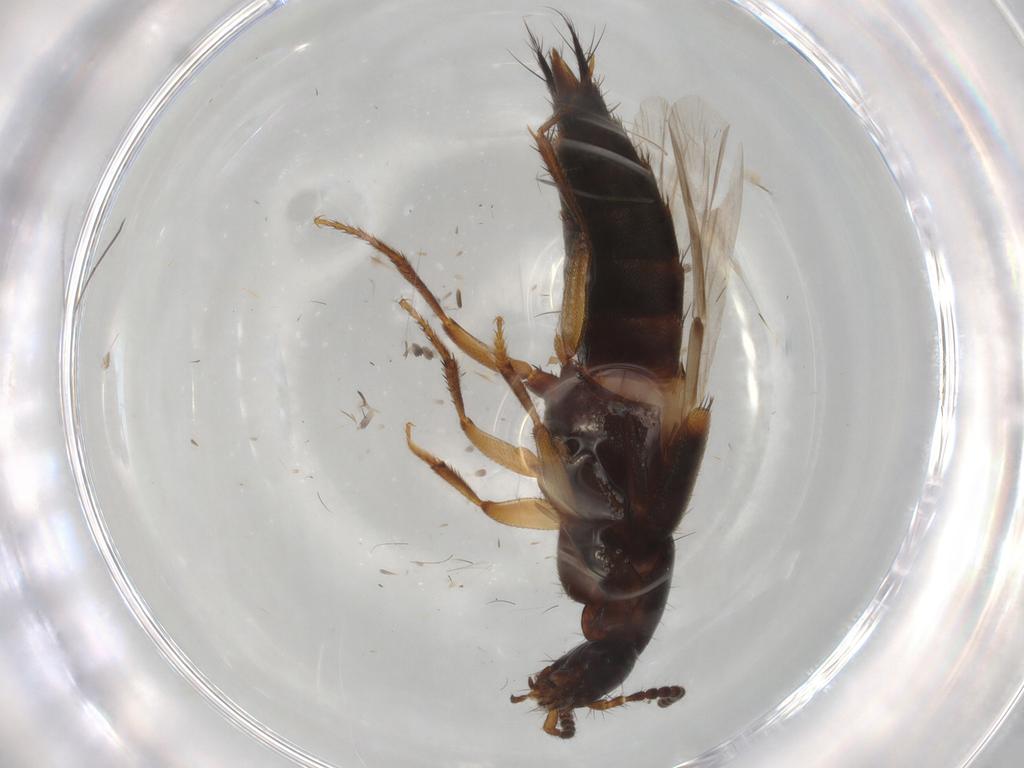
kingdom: Animalia
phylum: Arthropoda
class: Insecta
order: Coleoptera
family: Staphylinidae
